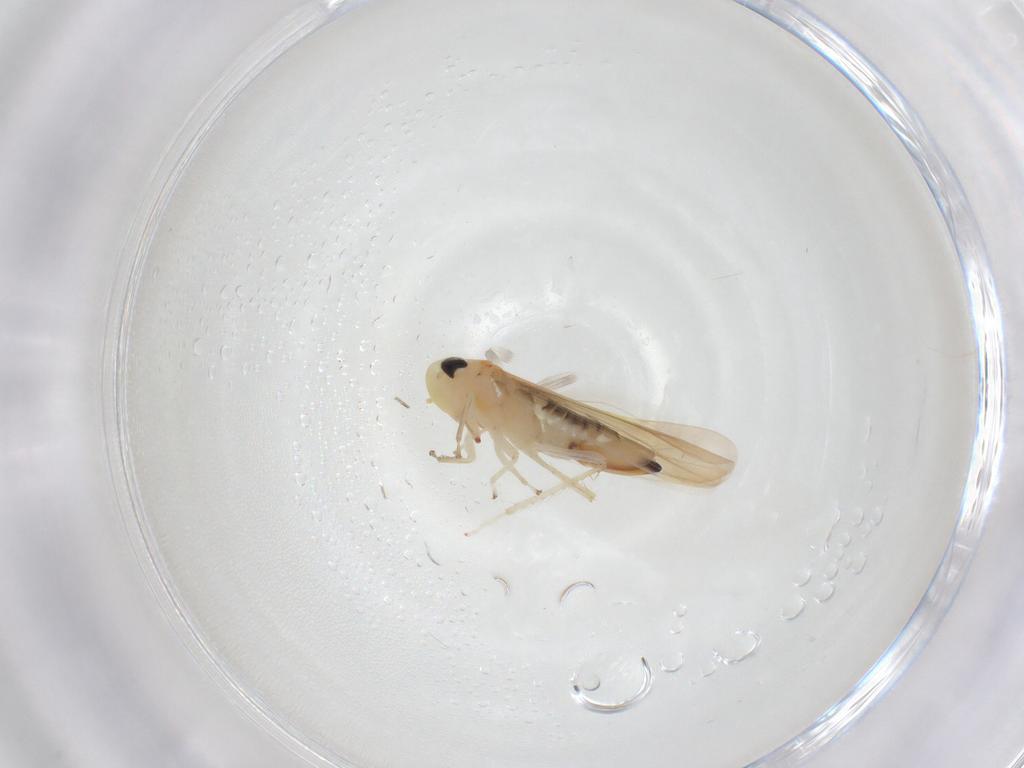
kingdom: Animalia
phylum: Arthropoda
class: Insecta
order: Hemiptera
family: Cicadellidae
